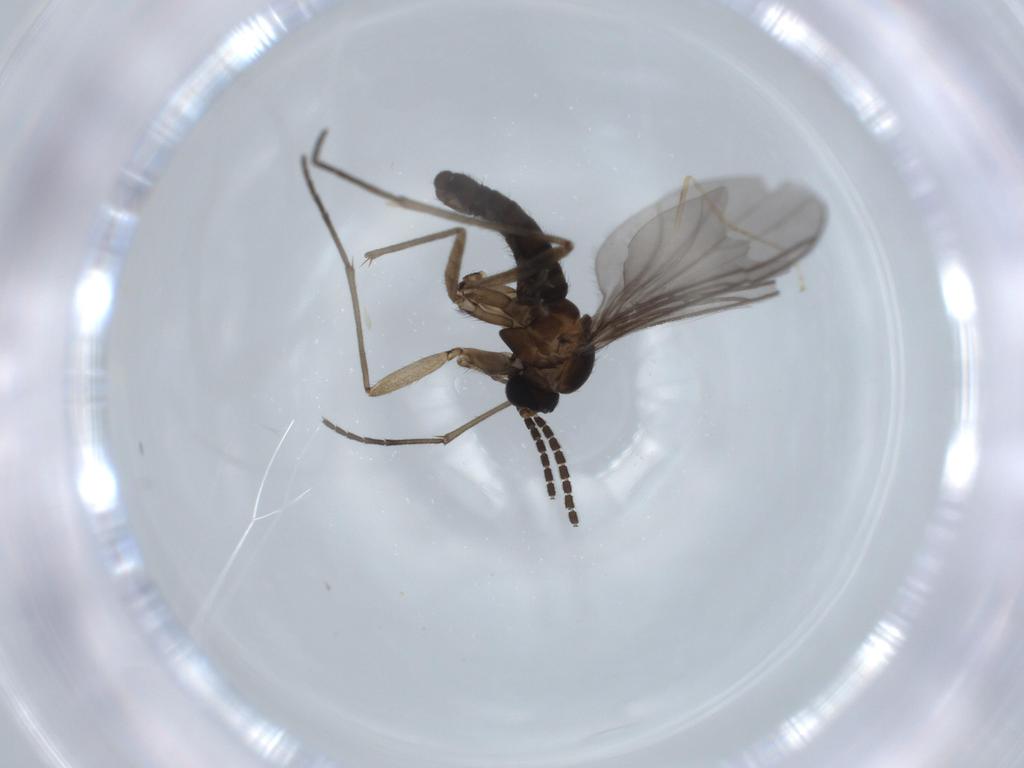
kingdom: Animalia
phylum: Arthropoda
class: Insecta
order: Diptera
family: Sciaridae
